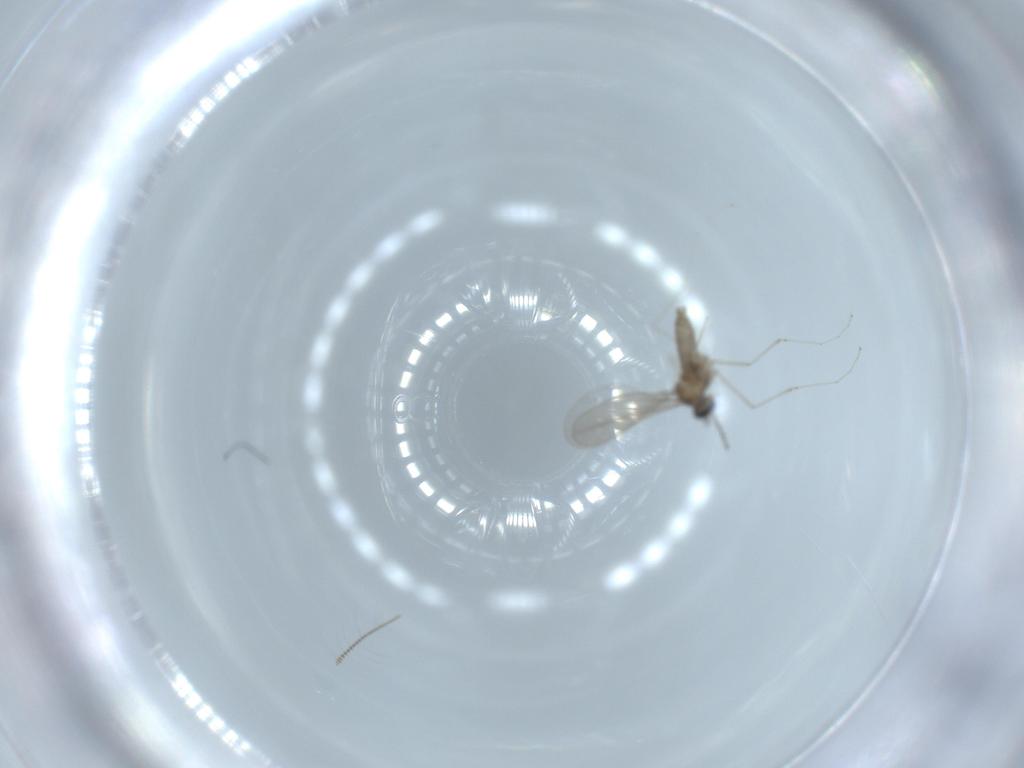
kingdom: Animalia
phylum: Arthropoda
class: Insecta
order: Diptera
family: Cecidomyiidae
